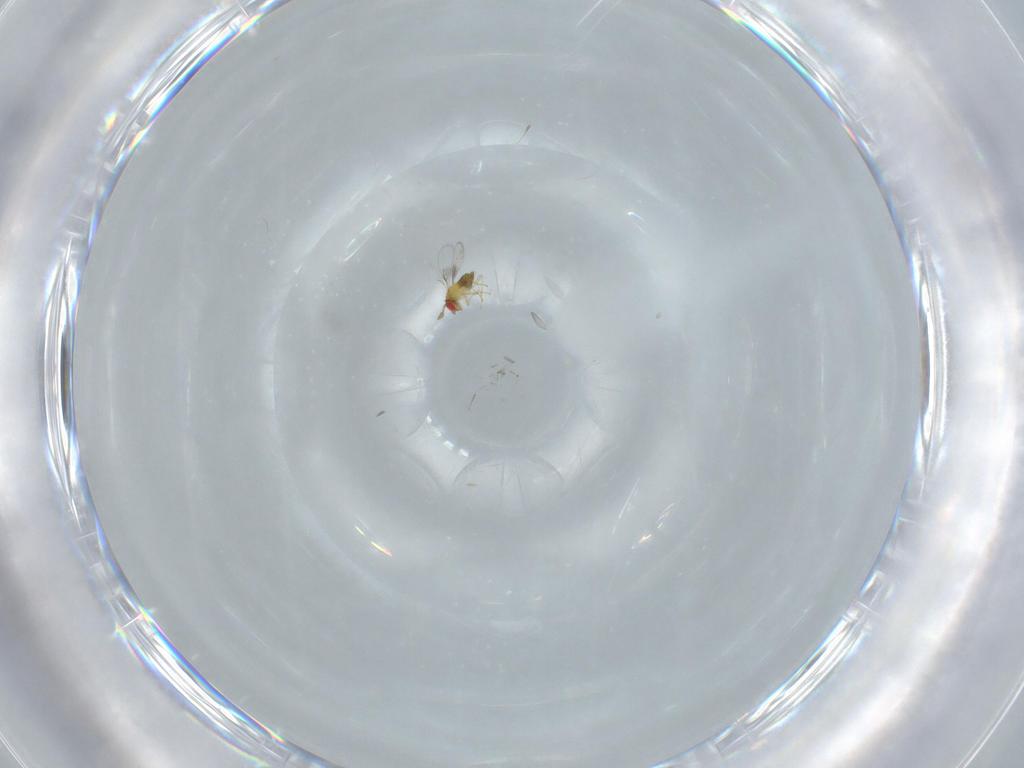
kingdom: Animalia
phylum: Arthropoda
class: Insecta
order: Hymenoptera
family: Trichogrammatidae
